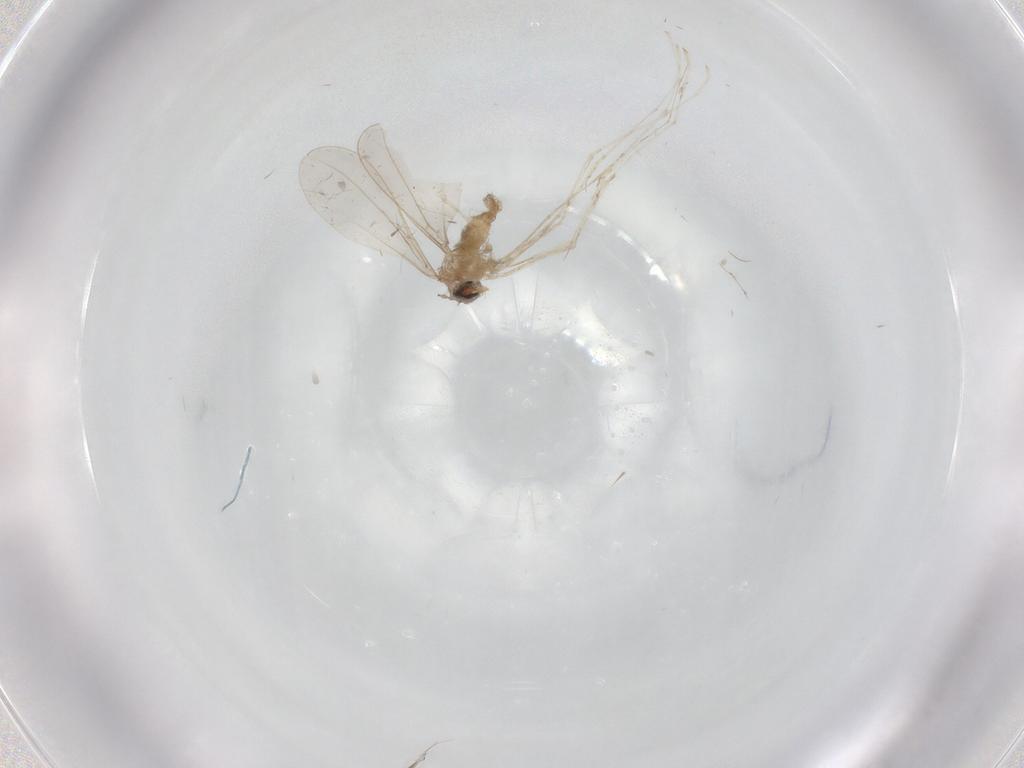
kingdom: Animalia
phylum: Arthropoda
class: Insecta
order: Diptera
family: Cecidomyiidae
